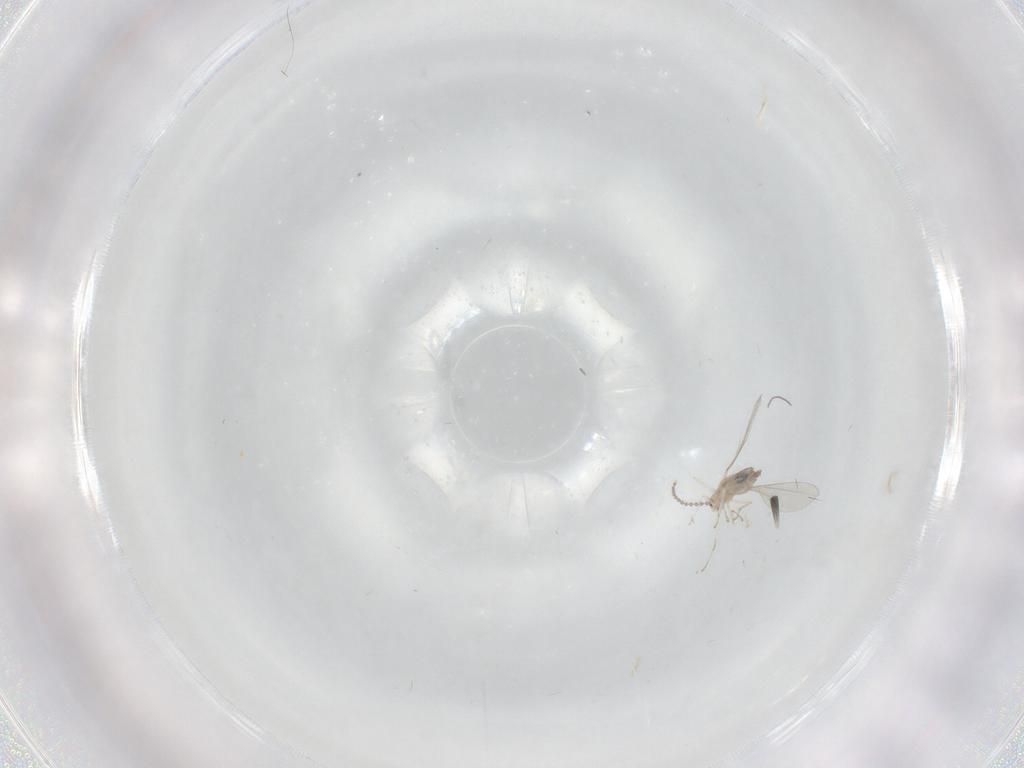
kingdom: Animalia
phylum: Arthropoda
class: Insecta
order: Diptera
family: Cecidomyiidae
